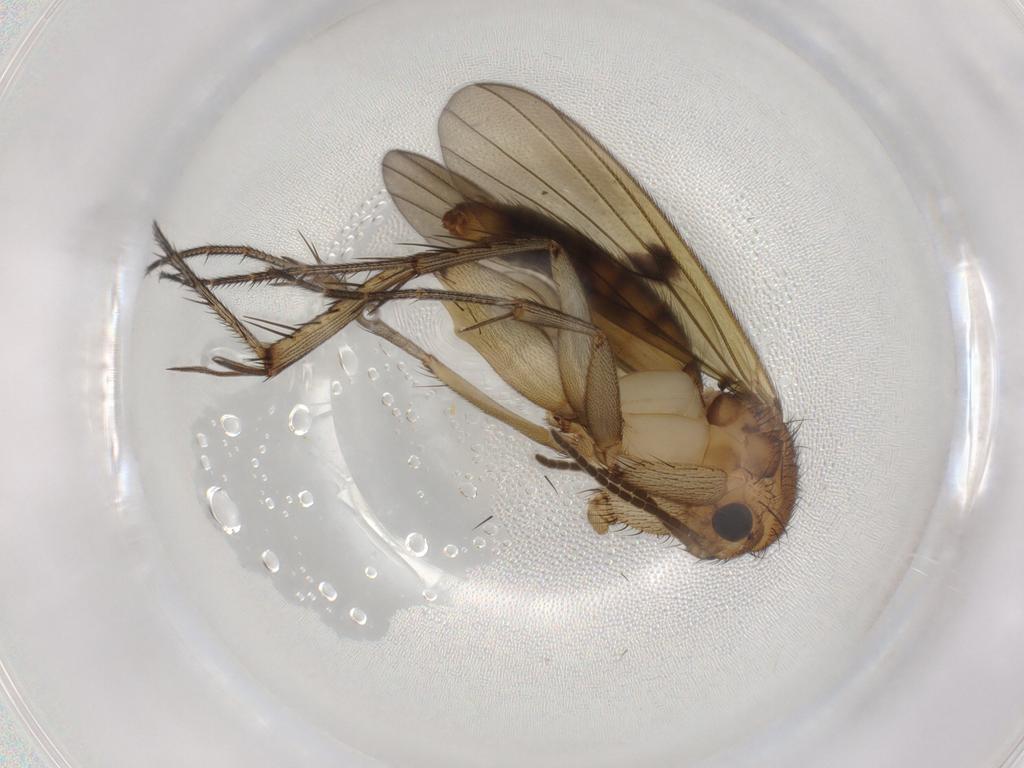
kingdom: Animalia
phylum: Arthropoda
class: Insecta
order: Diptera
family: Sciaridae
